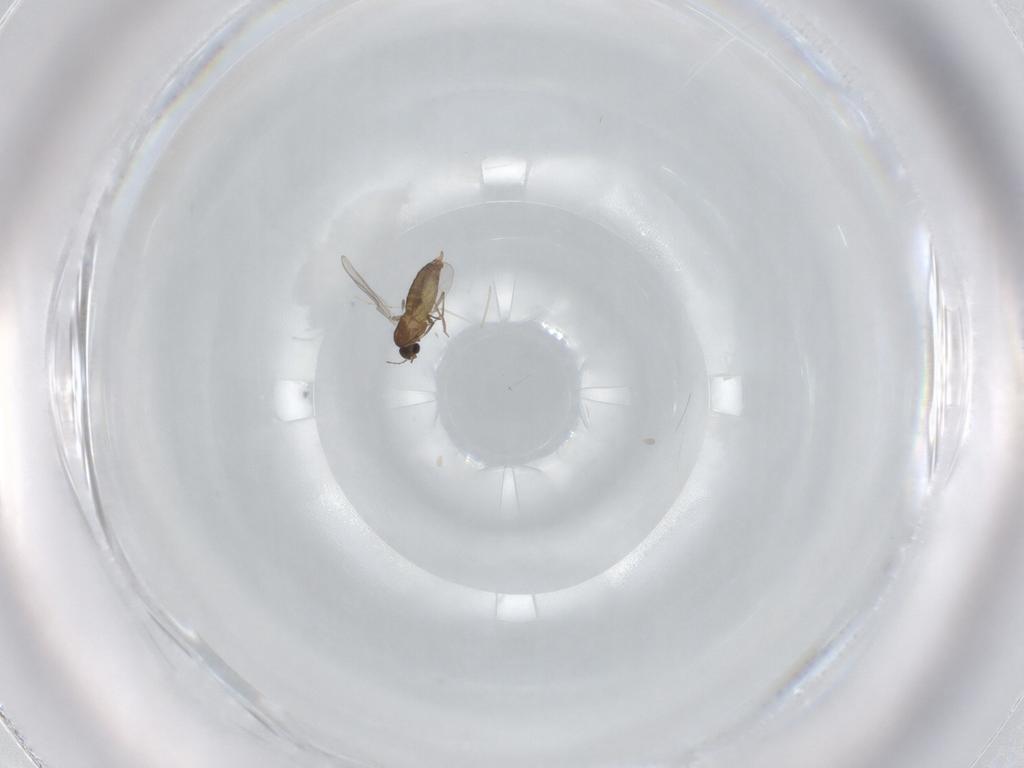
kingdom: Animalia
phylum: Arthropoda
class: Insecta
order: Diptera
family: Chironomidae
